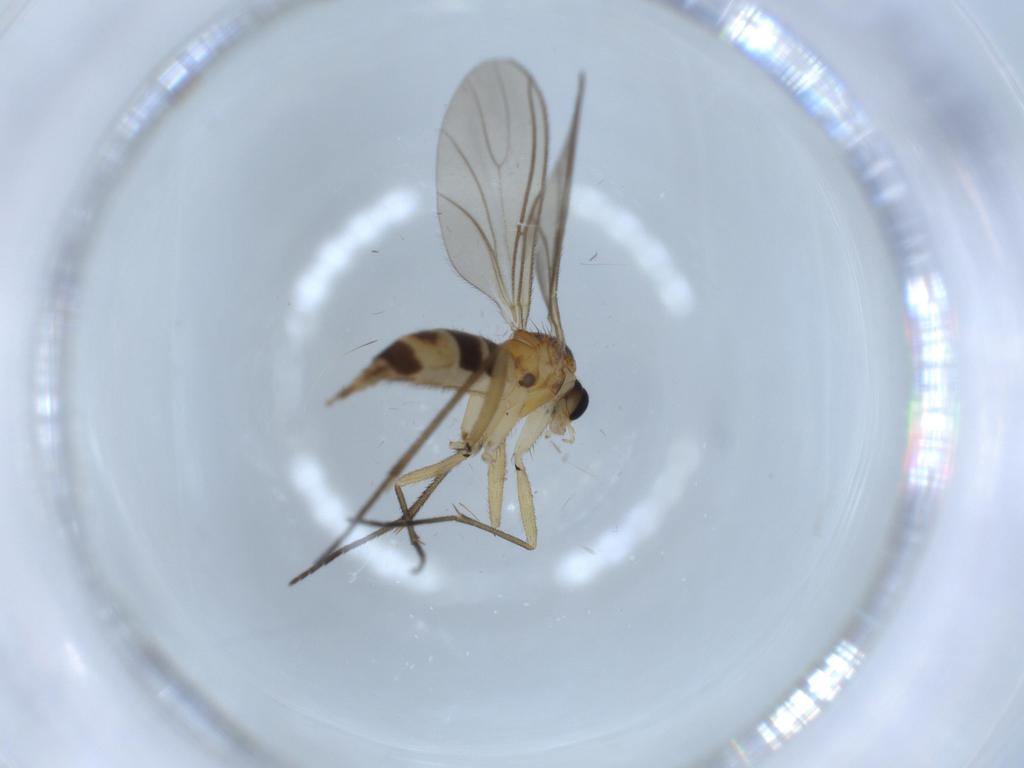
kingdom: Animalia
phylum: Arthropoda
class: Insecta
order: Diptera
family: Sciaridae
